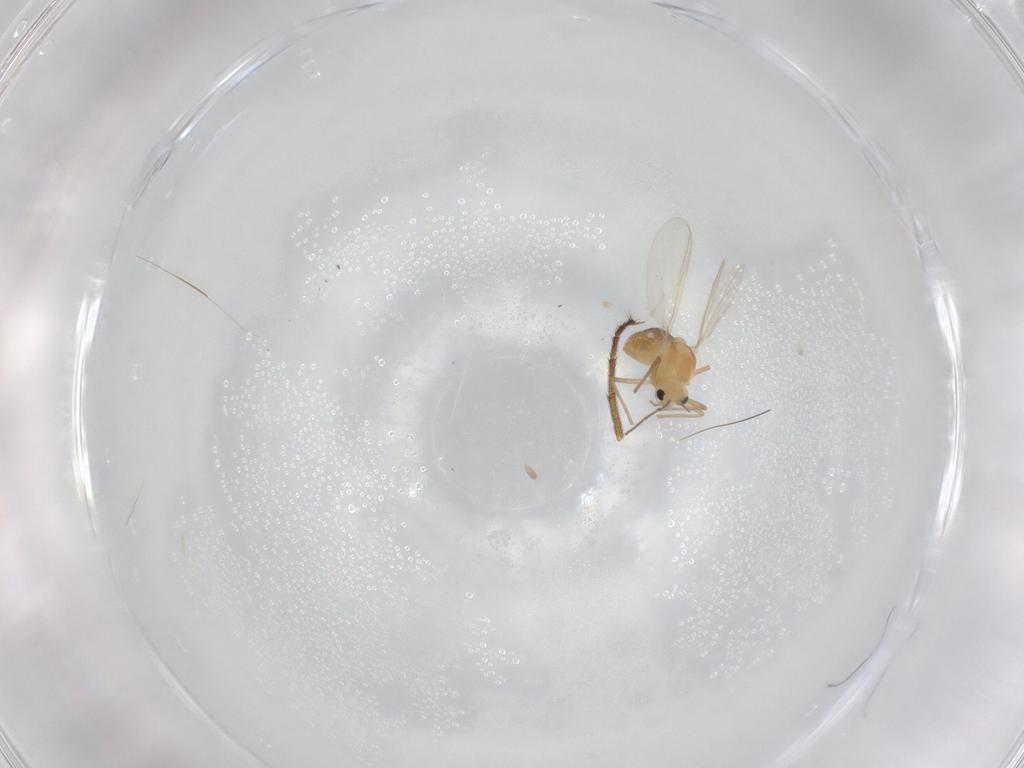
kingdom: Animalia
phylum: Arthropoda
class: Insecta
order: Diptera
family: Chironomidae
